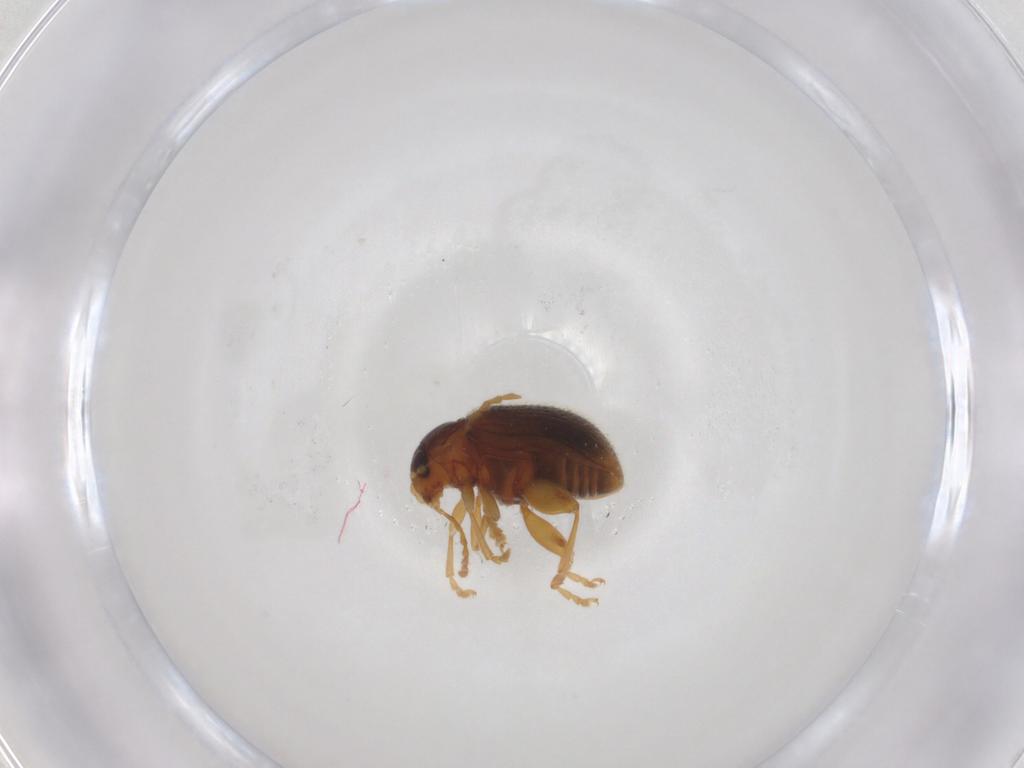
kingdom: Animalia
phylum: Arthropoda
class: Insecta
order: Coleoptera
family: Chrysomelidae
